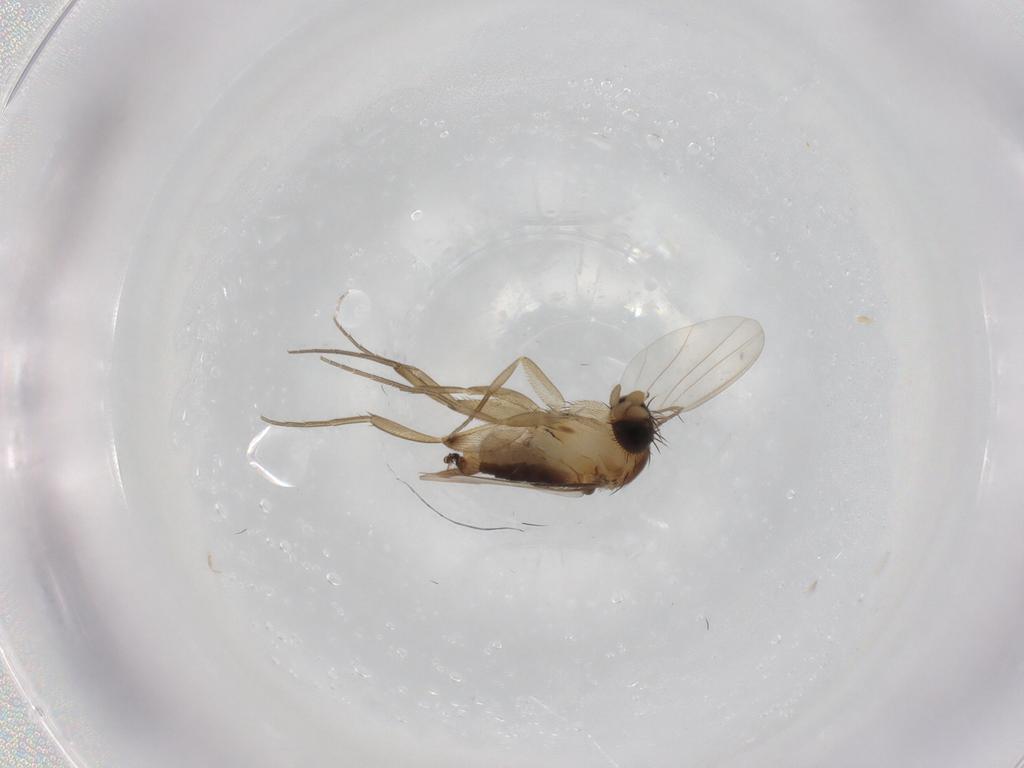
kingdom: Animalia
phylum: Arthropoda
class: Insecta
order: Diptera
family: Phoridae
